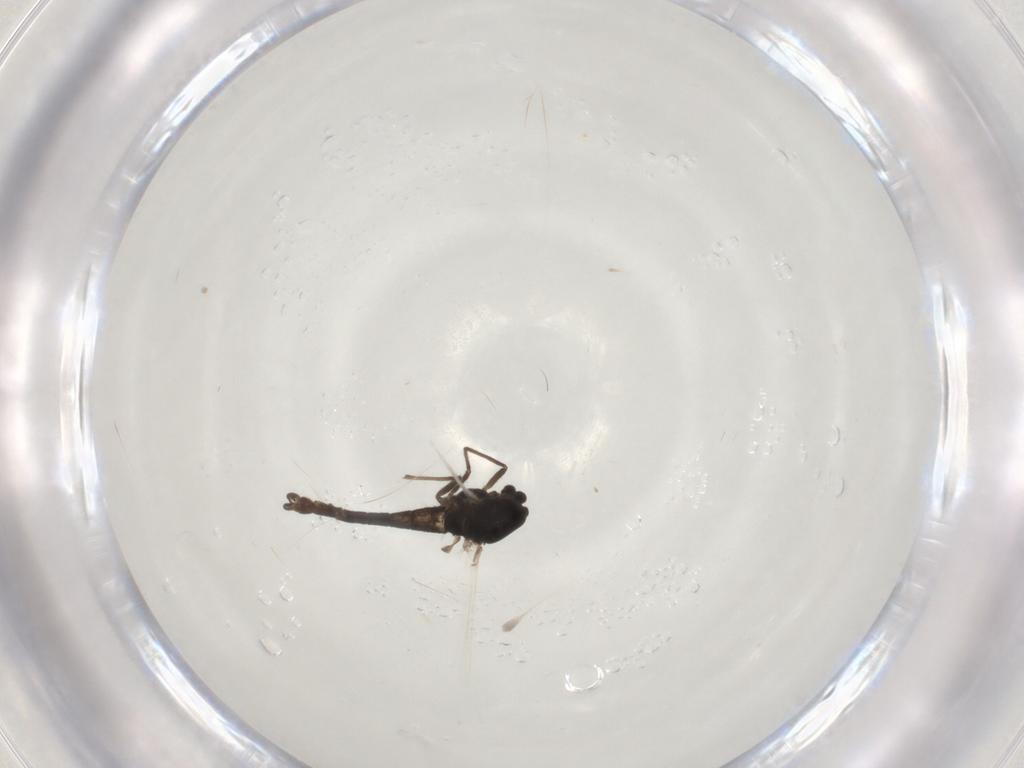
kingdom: Animalia
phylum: Arthropoda
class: Insecta
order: Diptera
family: Chironomidae
